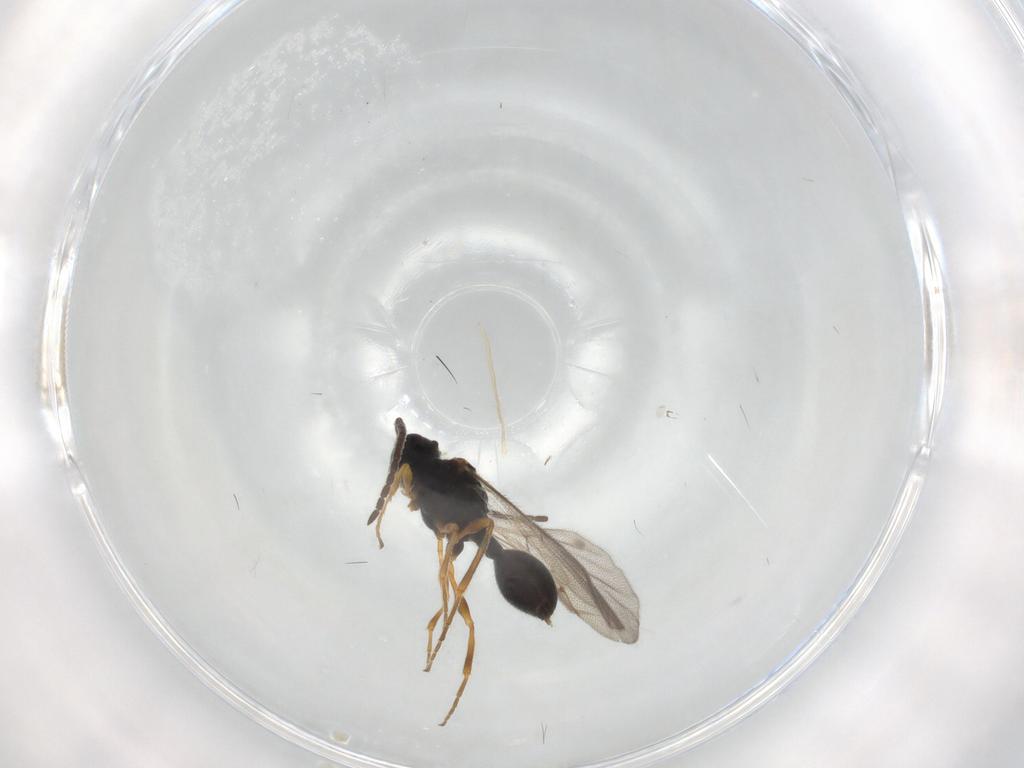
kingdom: Animalia
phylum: Arthropoda
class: Insecta
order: Hymenoptera
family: Diapriidae
